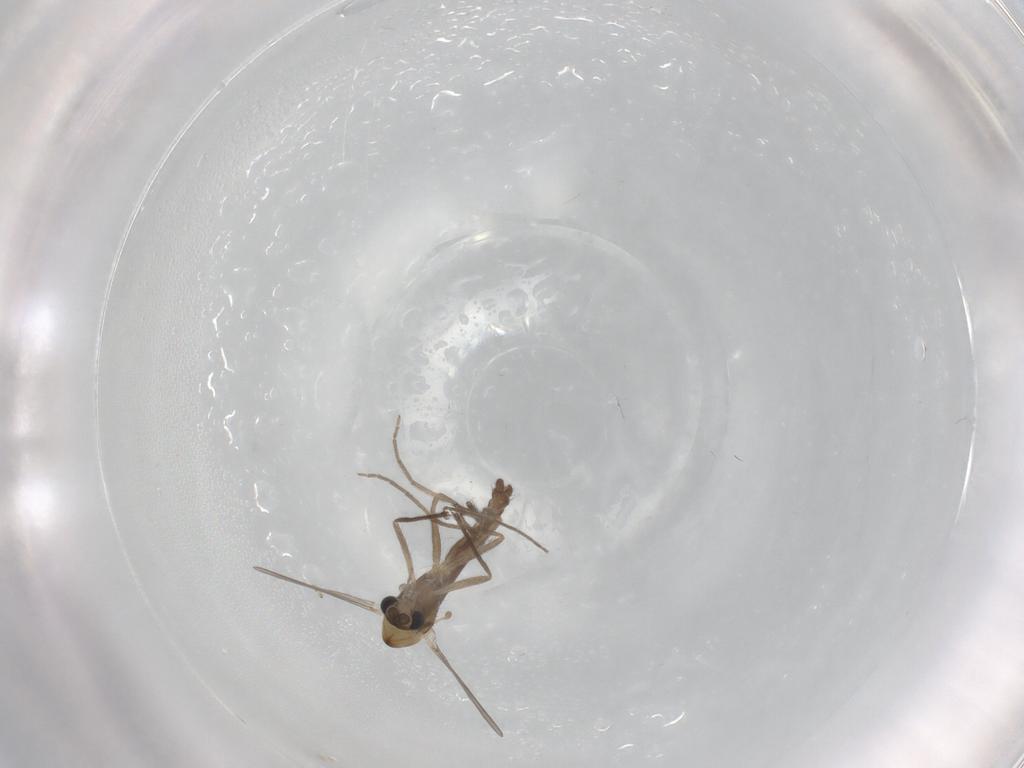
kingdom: Animalia
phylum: Arthropoda
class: Insecta
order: Diptera
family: Chironomidae
